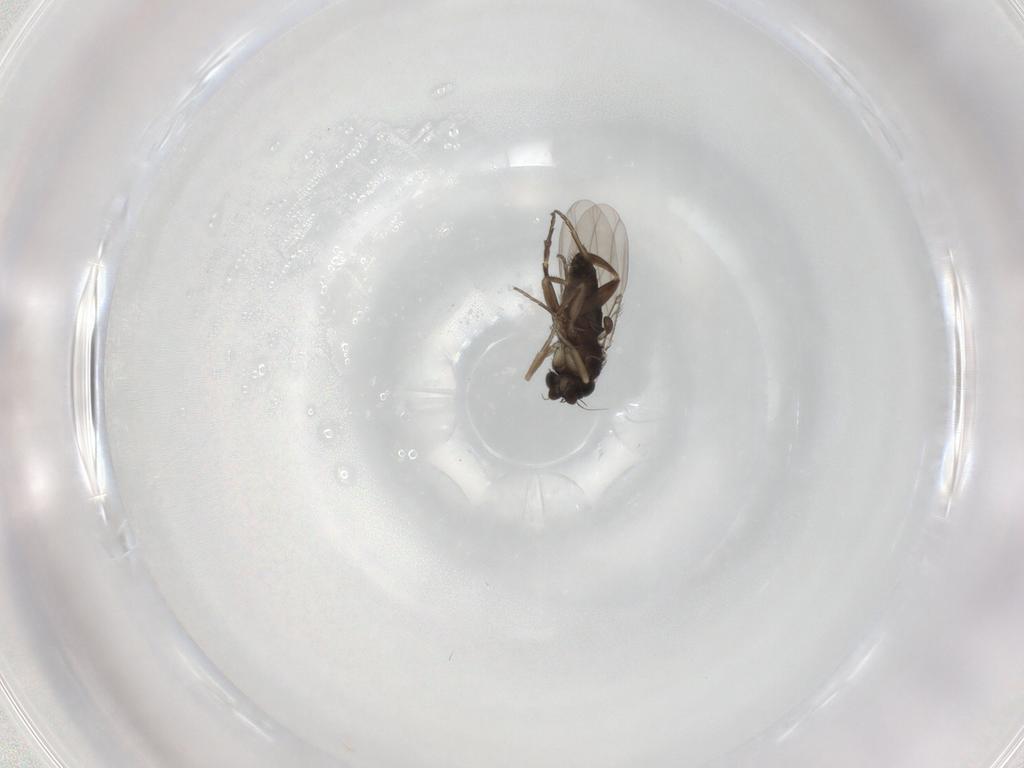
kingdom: Animalia
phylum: Arthropoda
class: Insecta
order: Diptera
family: Phoridae
